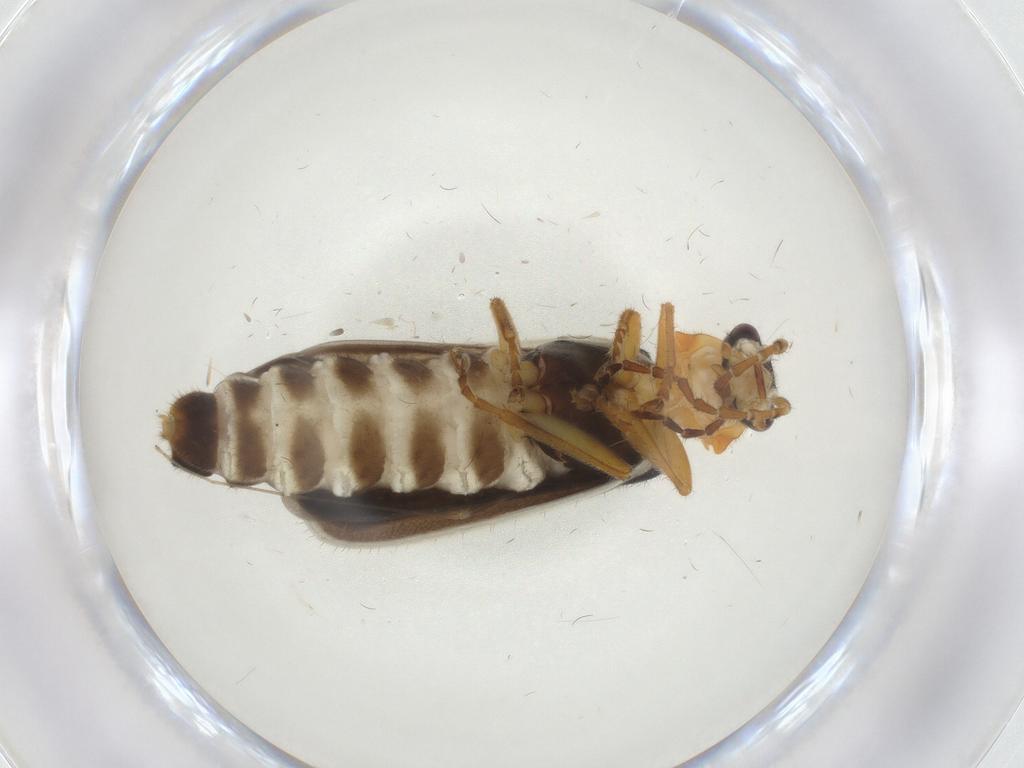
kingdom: Animalia
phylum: Arthropoda
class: Insecta
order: Coleoptera
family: Cantharidae
